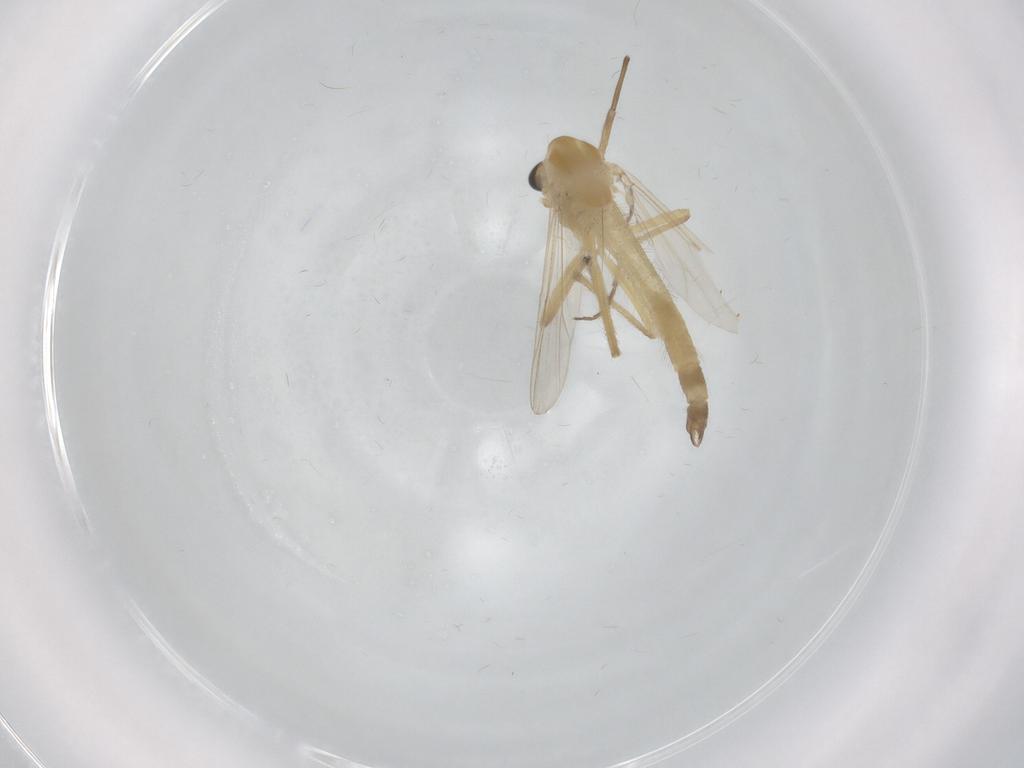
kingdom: Animalia
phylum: Arthropoda
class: Insecta
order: Diptera
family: Chironomidae
